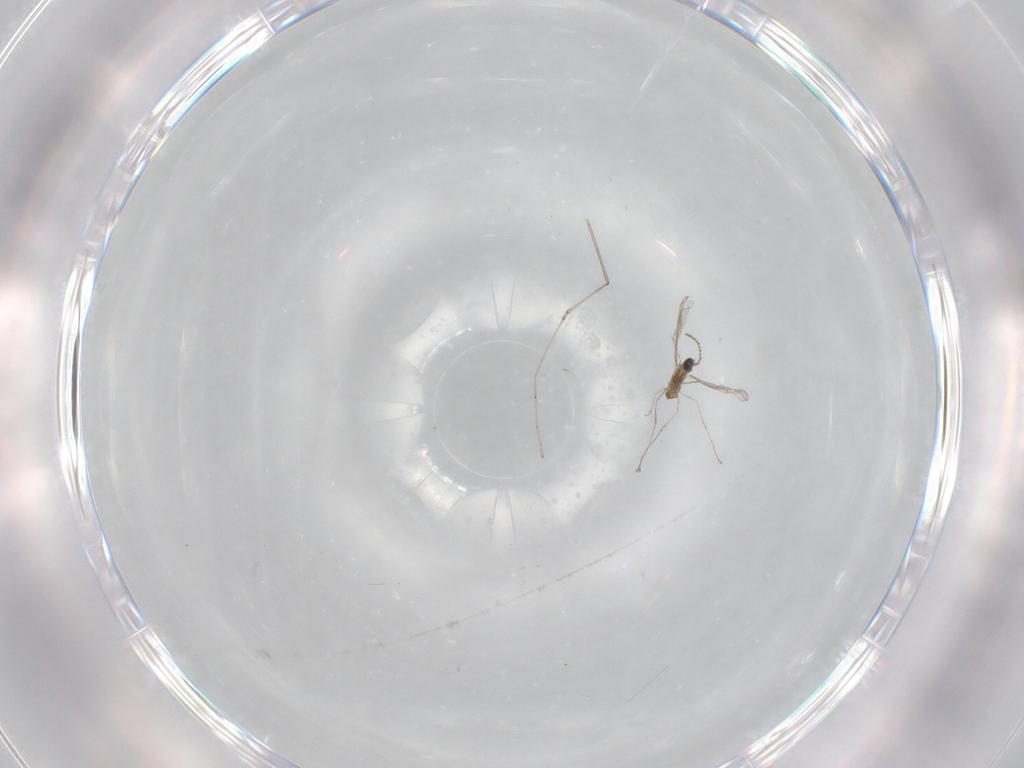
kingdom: Animalia
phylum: Arthropoda
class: Insecta
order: Diptera
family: Cecidomyiidae
